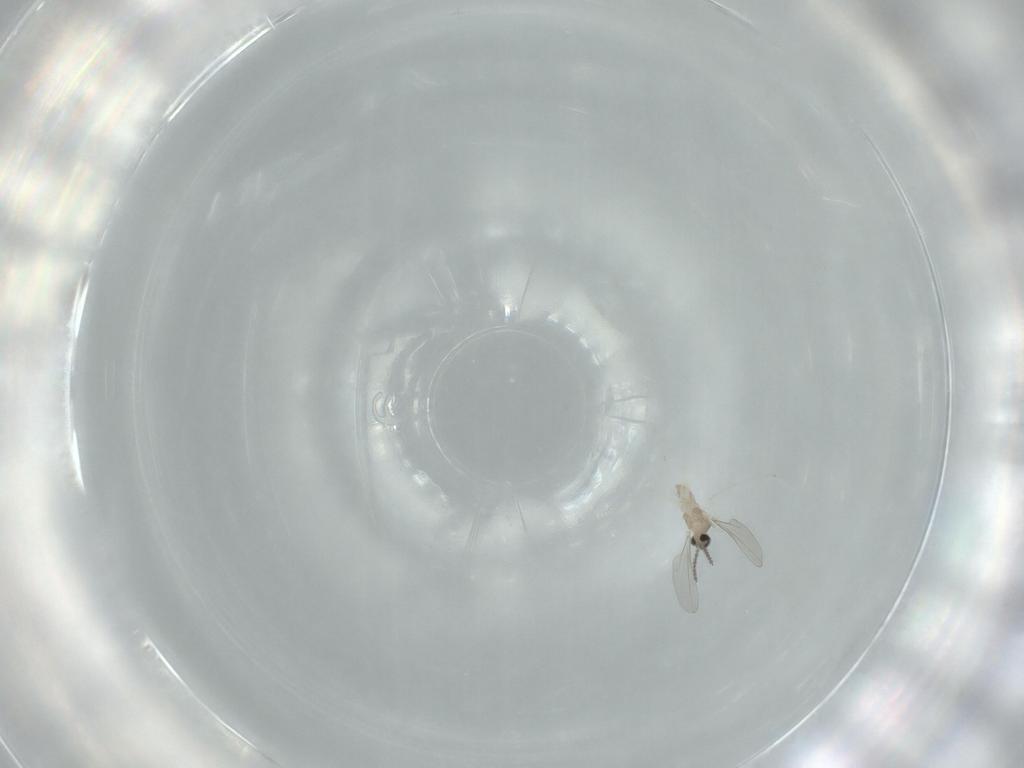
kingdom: Animalia
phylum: Arthropoda
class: Insecta
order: Diptera
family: Cecidomyiidae
